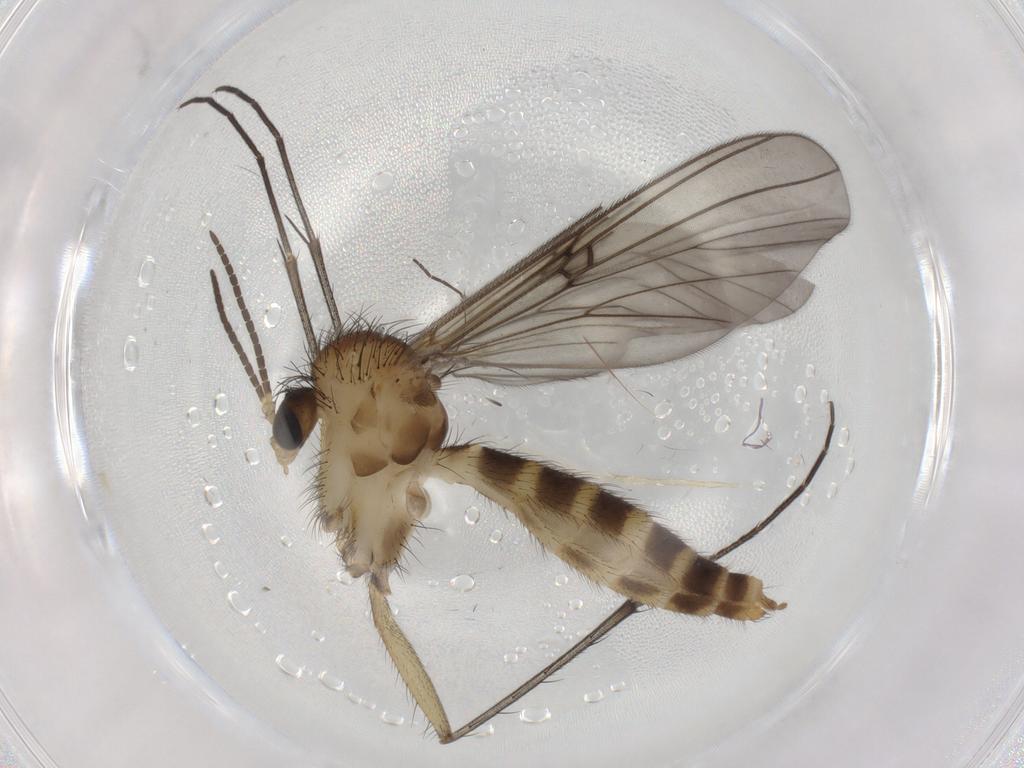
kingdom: Animalia
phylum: Arthropoda
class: Insecta
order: Diptera
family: Mycetophilidae
